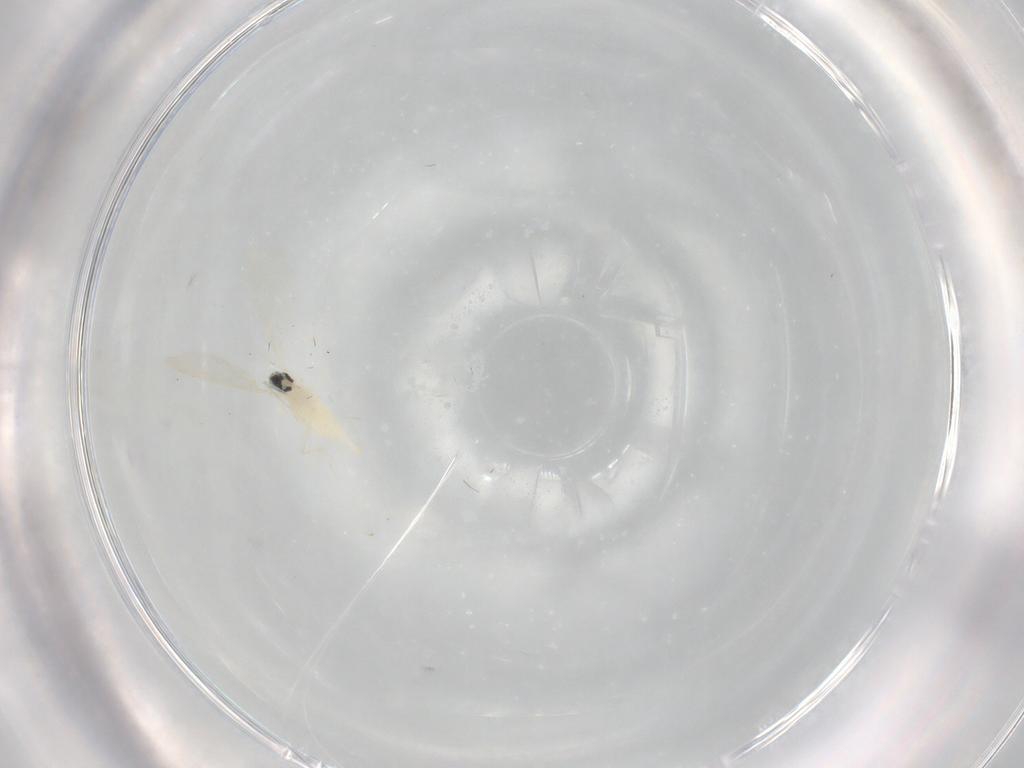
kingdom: Animalia
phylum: Arthropoda
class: Insecta
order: Diptera
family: Cecidomyiidae
